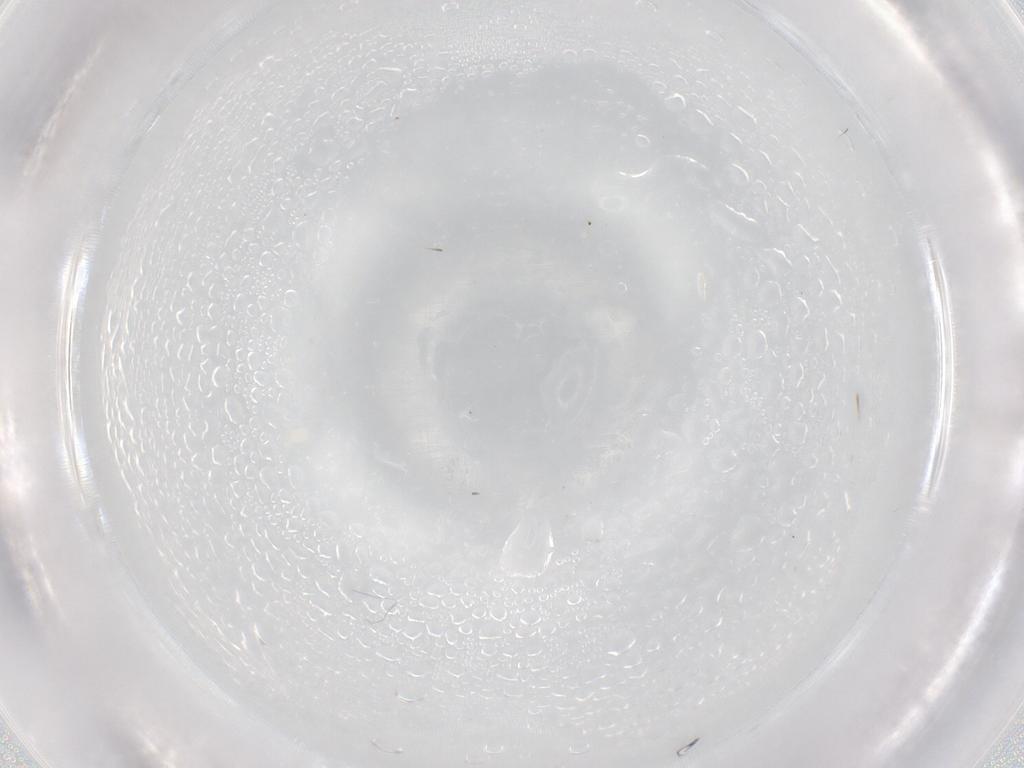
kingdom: Animalia
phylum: Arthropoda
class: Arachnida
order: Trombidiformes
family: Cunaxidae
